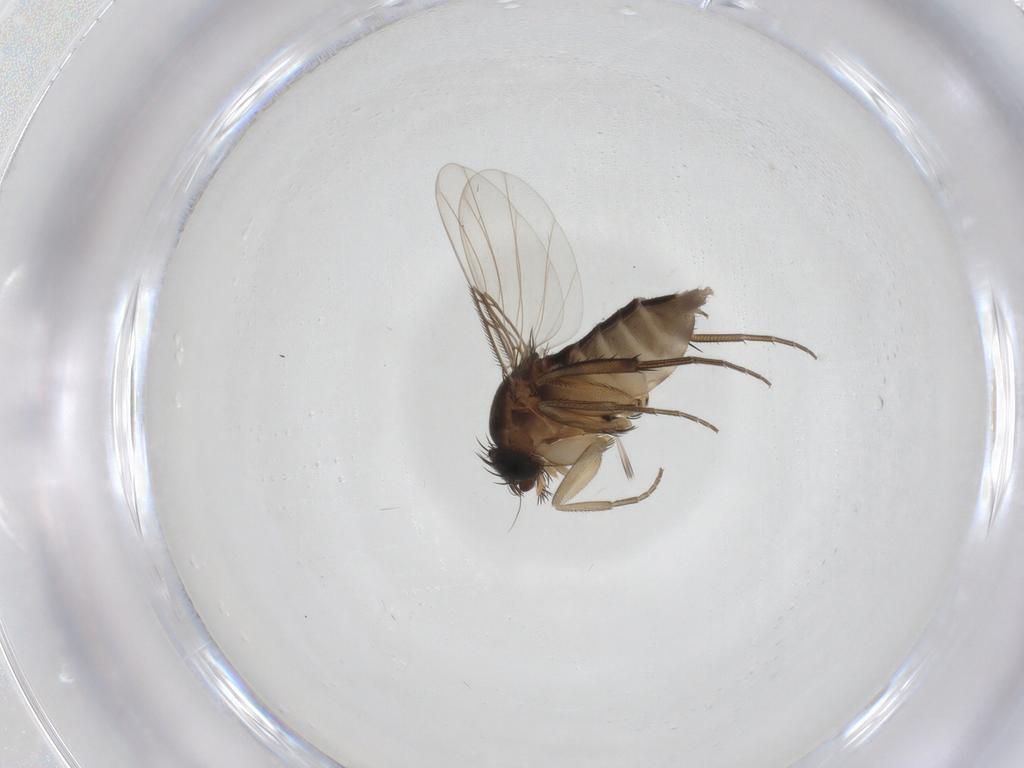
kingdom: Animalia
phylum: Arthropoda
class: Insecta
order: Diptera
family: Phoridae
